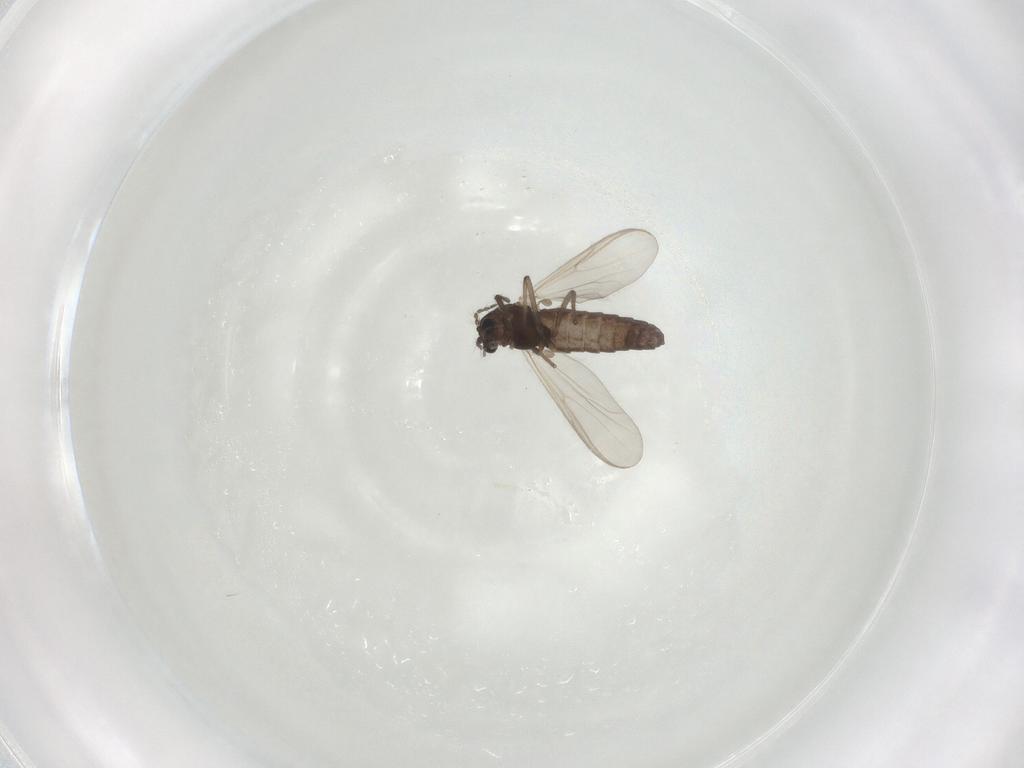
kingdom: Animalia
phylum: Arthropoda
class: Insecta
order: Diptera
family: Chironomidae
